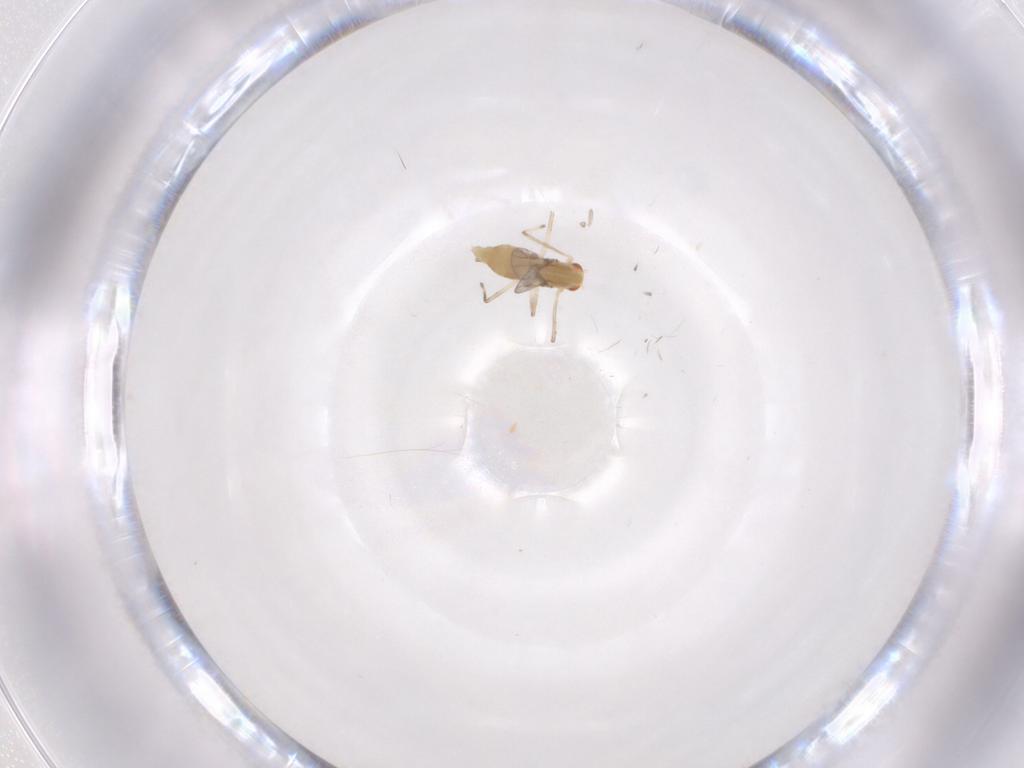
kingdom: Animalia
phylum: Arthropoda
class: Insecta
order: Diptera
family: Chironomidae
